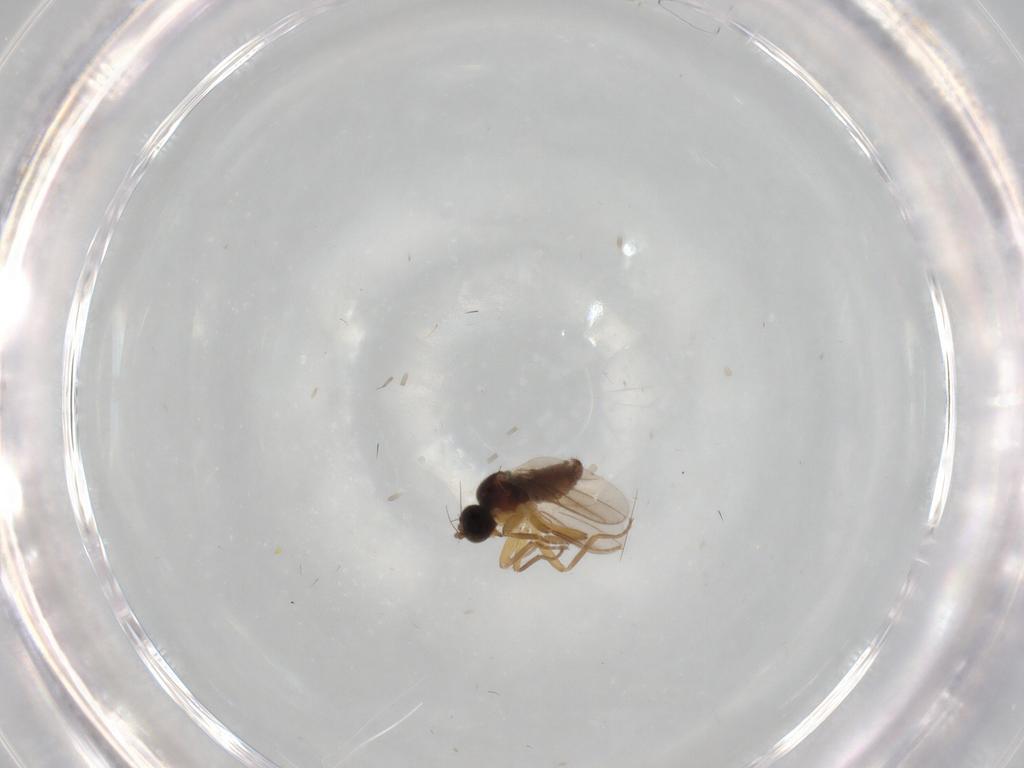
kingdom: Animalia
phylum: Arthropoda
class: Insecta
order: Diptera
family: Hybotidae
